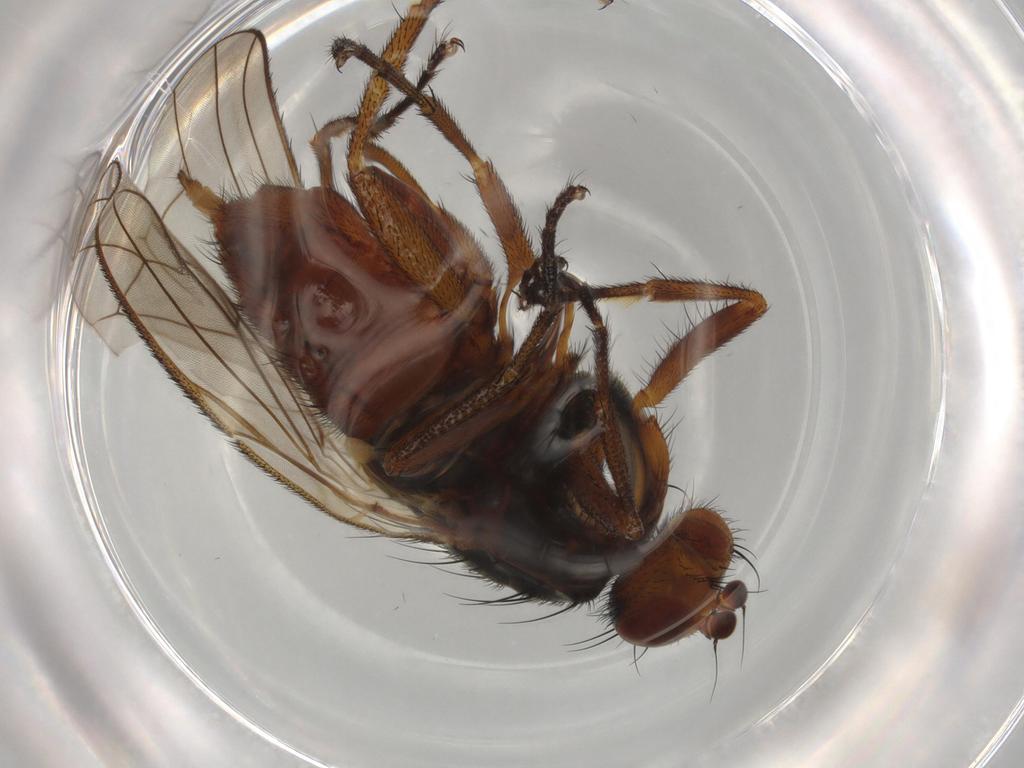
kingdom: Animalia
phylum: Arthropoda
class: Insecta
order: Diptera
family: Heleomyzidae
